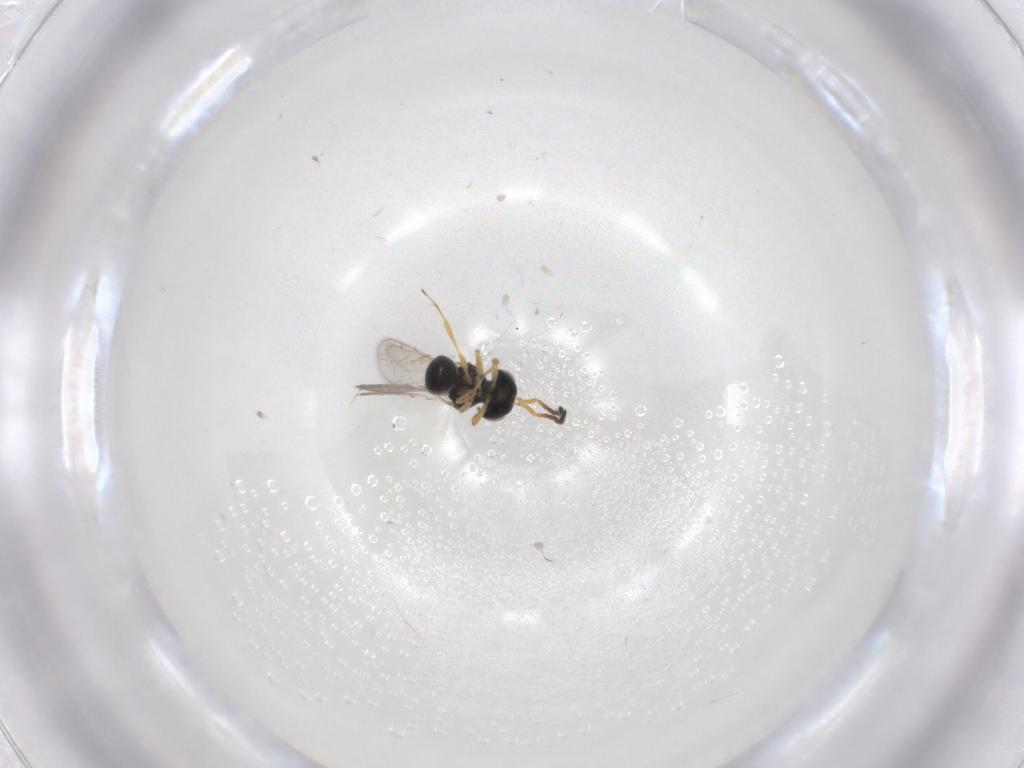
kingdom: Animalia
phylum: Arthropoda
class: Insecta
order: Hymenoptera
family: Scelionidae
